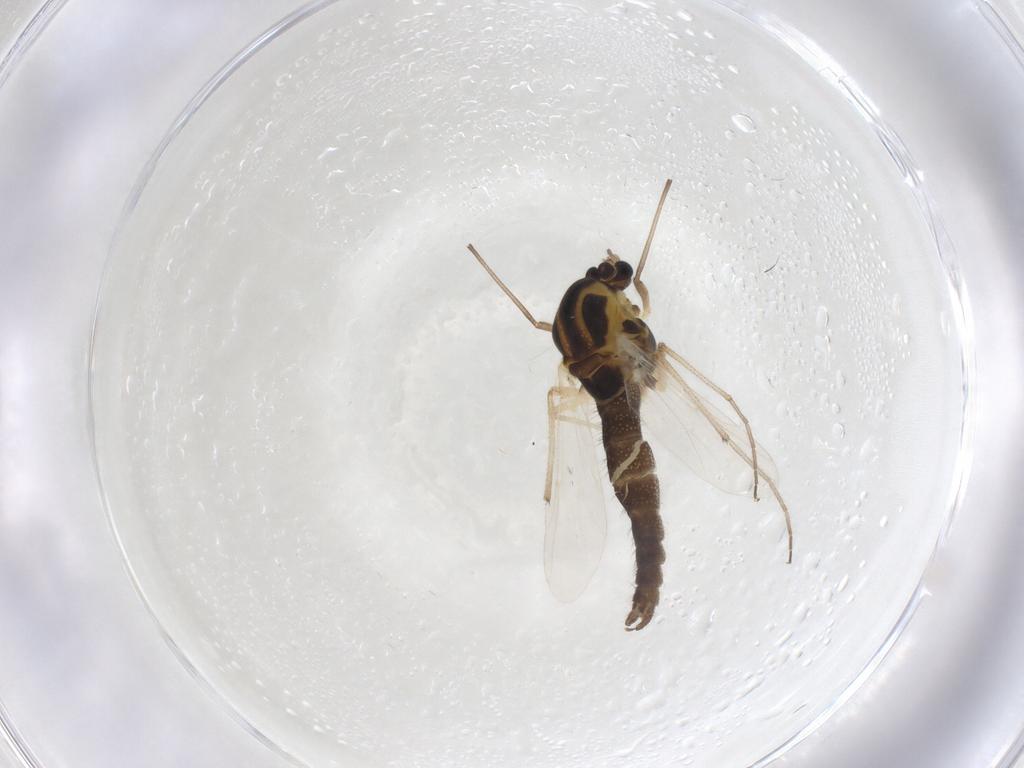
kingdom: Animalia
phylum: Arthropoda
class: Insecta
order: Diptera
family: Chironomidae
